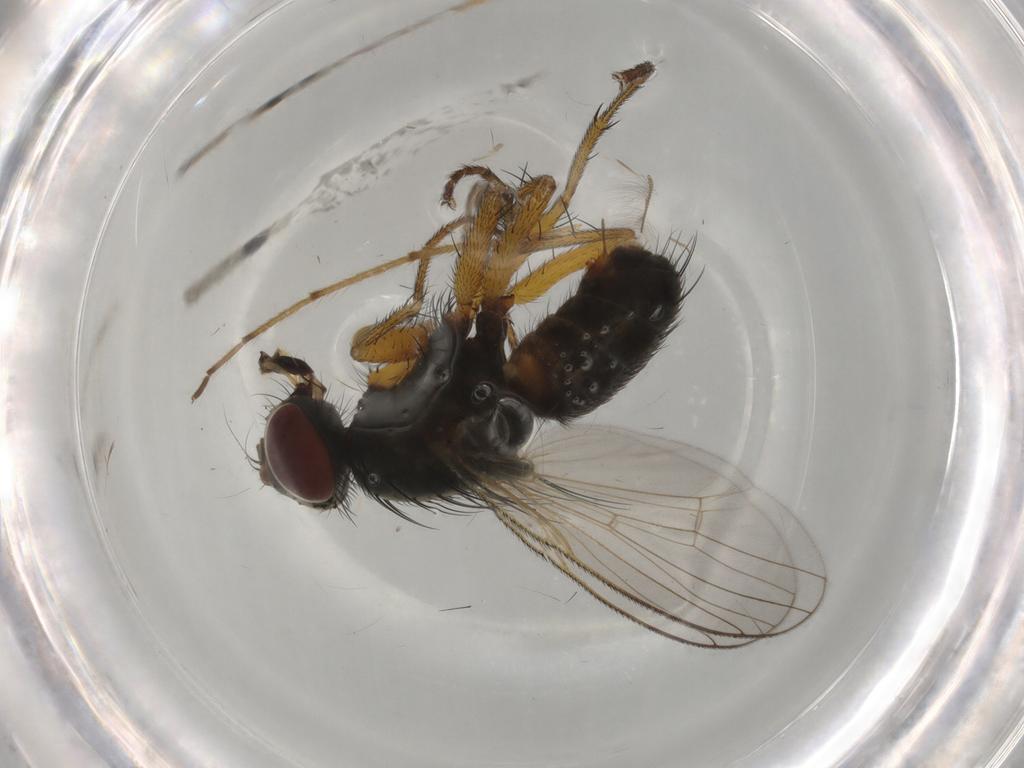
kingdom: Animalia
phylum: Arthropoda
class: Insecta
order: Diptera
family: Chironomidae
